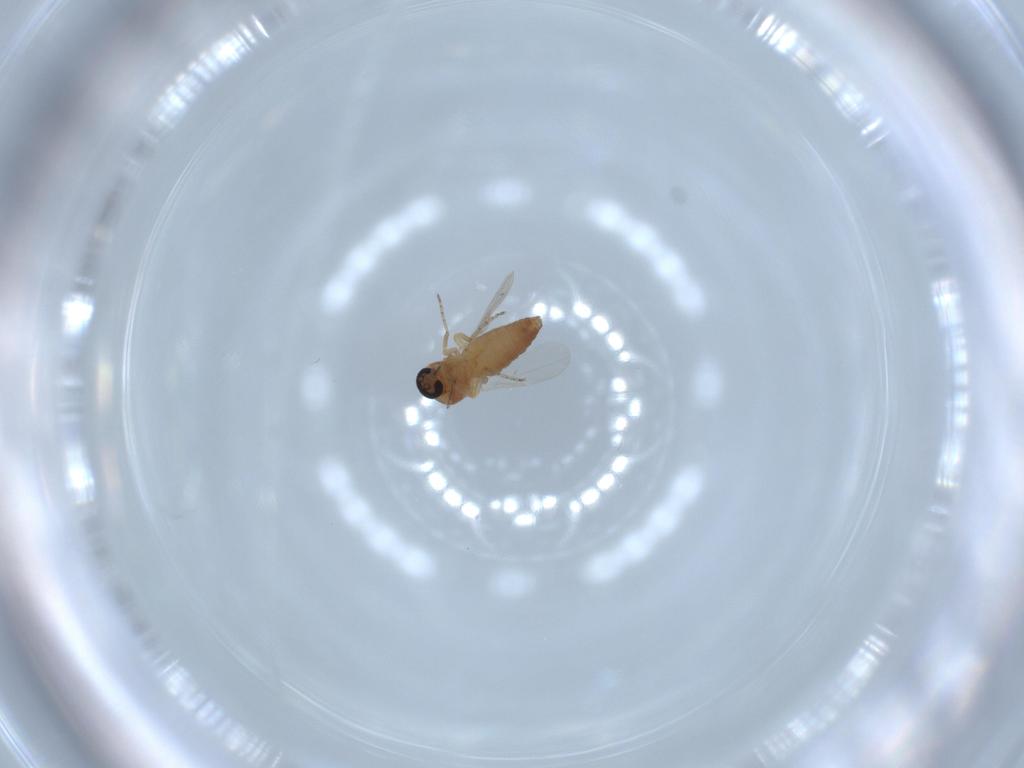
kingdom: Animalia
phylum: Arthropoda
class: Insecta
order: Diptera
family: Ceratopogonidae
